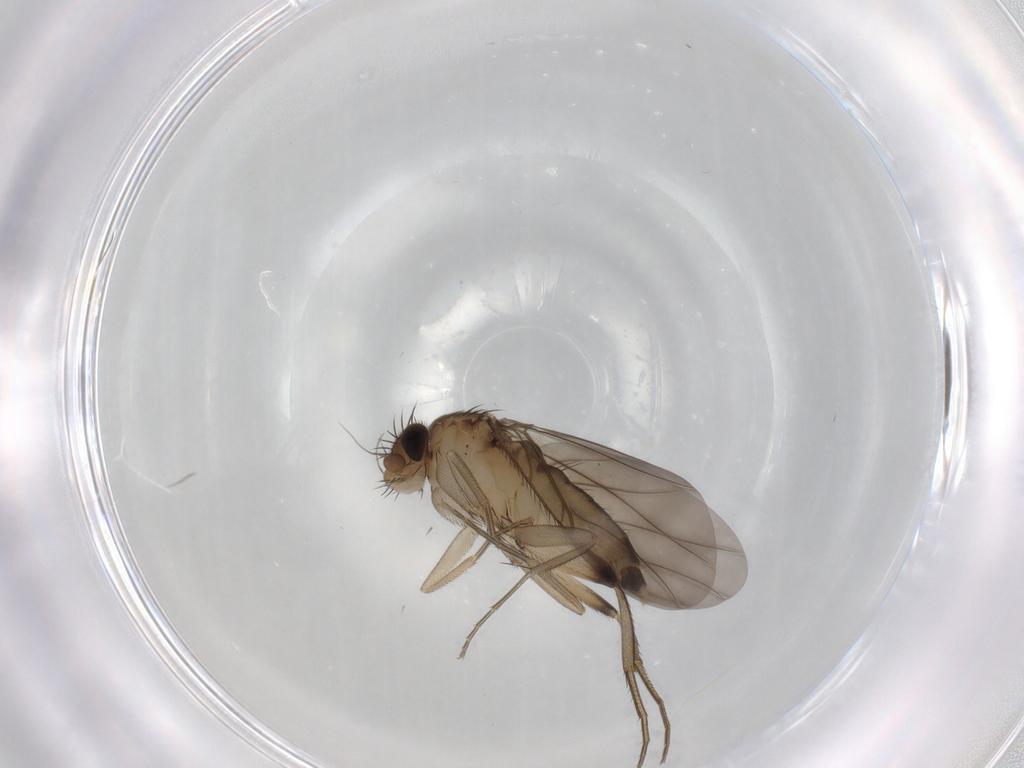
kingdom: Animalia
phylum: Arthropoda
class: Insecta
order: Diptera
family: Phoridae
